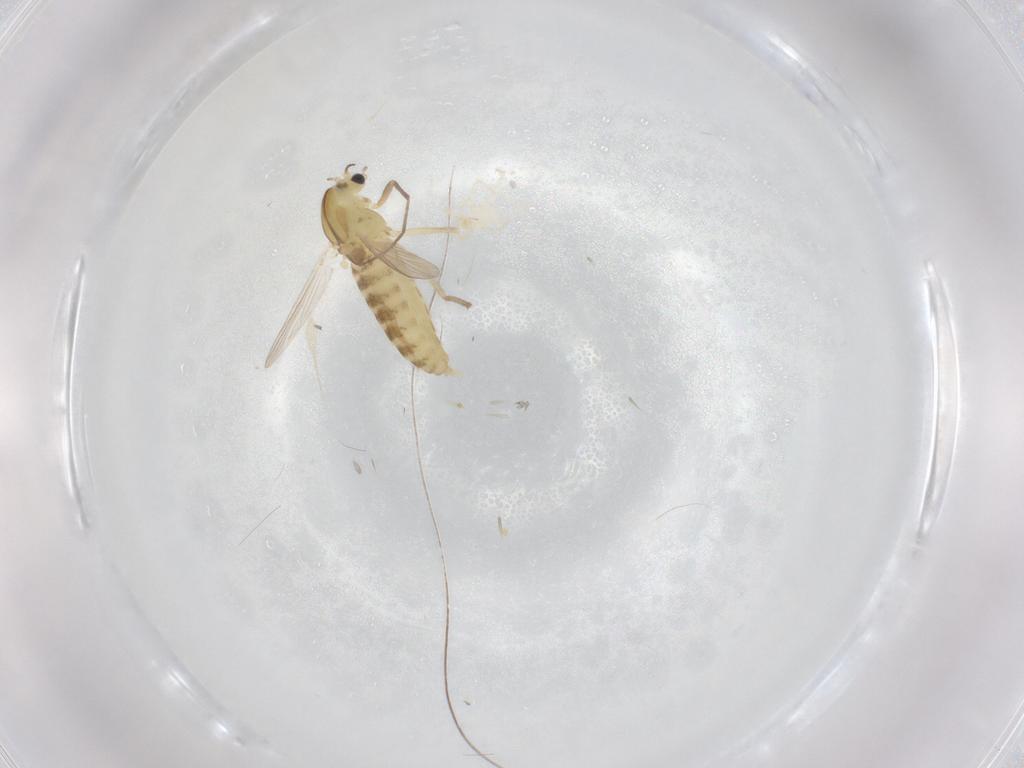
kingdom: Animalia
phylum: Arthropoda
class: Insecta
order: Diptera
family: Chironomidae
